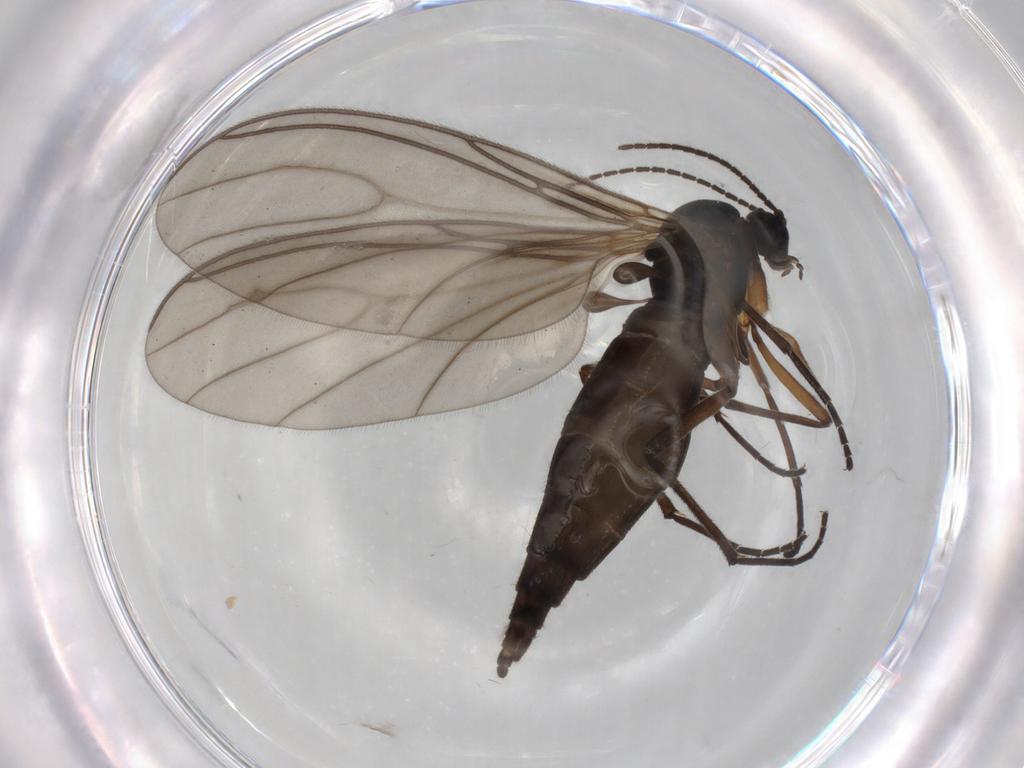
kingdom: Animalia
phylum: Arthropoda
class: Insecta
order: Diptera
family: Sciaridae
